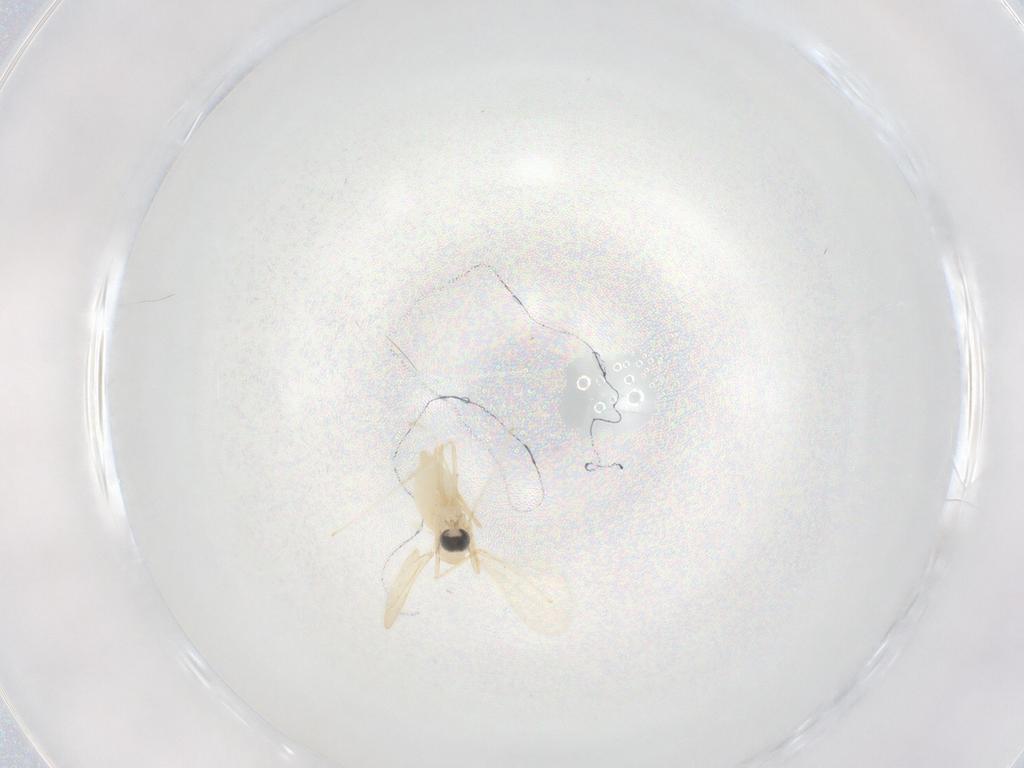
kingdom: Animalia
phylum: Arthropoda
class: Insecta
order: Diptera
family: Cecidomyiidae
